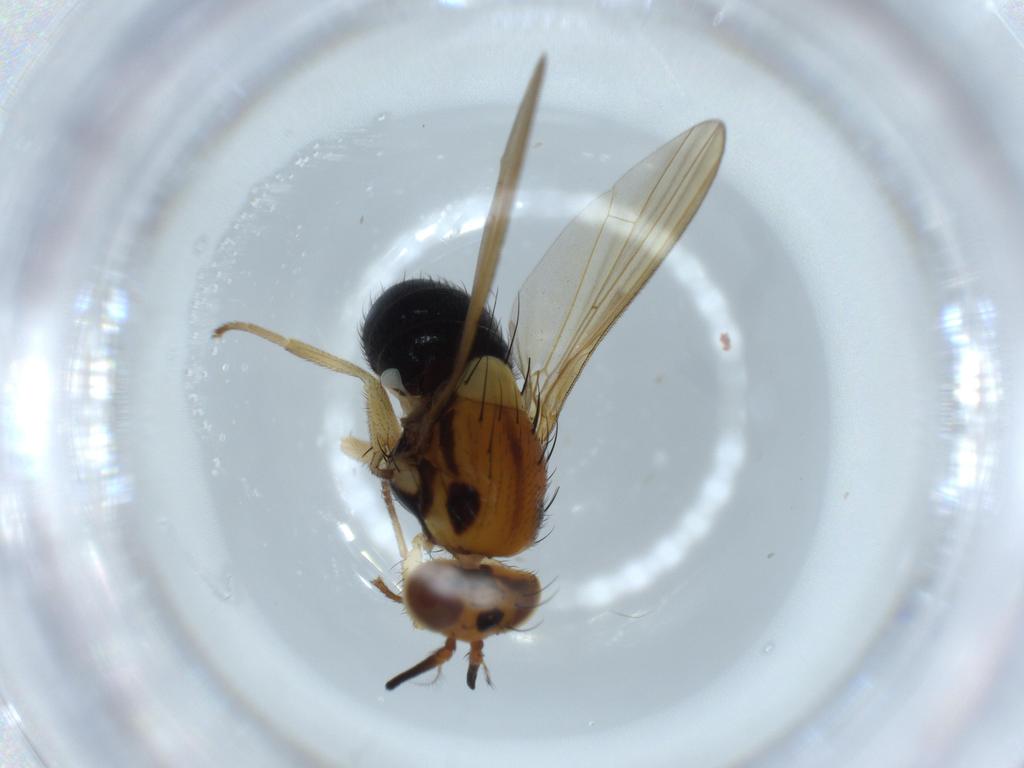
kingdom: Animalia
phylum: Arthropoda
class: Insecta
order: Diptera
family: Lauxaniidae
